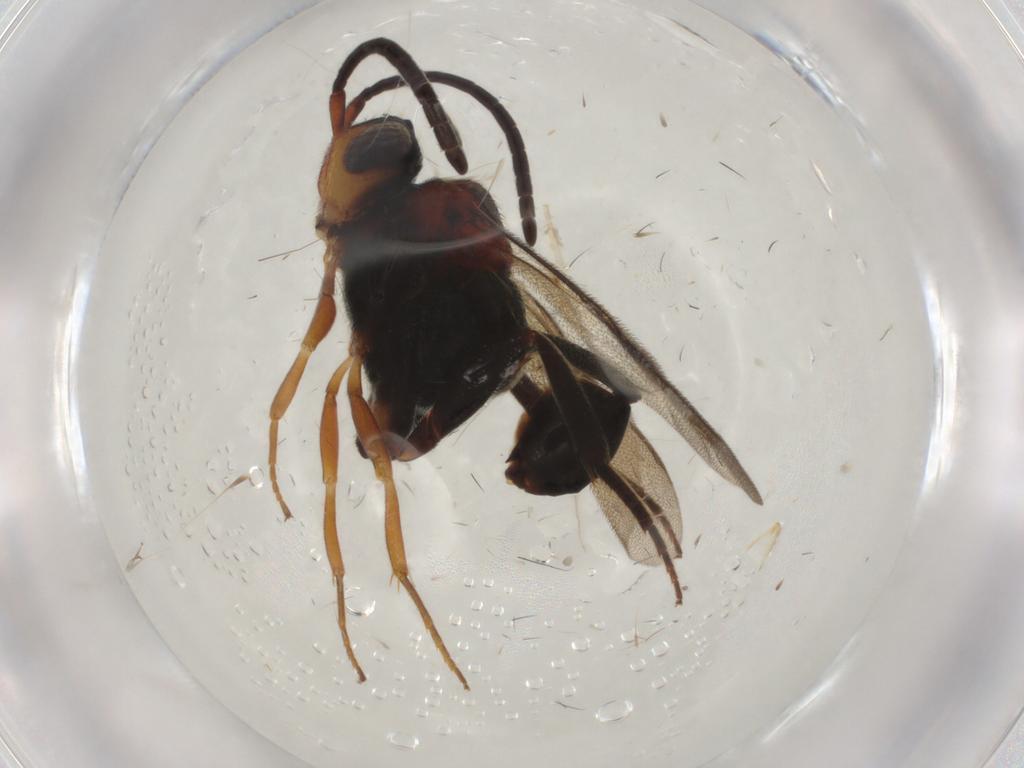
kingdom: Animalia
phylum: Arthropoda
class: Insecta
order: Hymenoptera
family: Evaniidae
